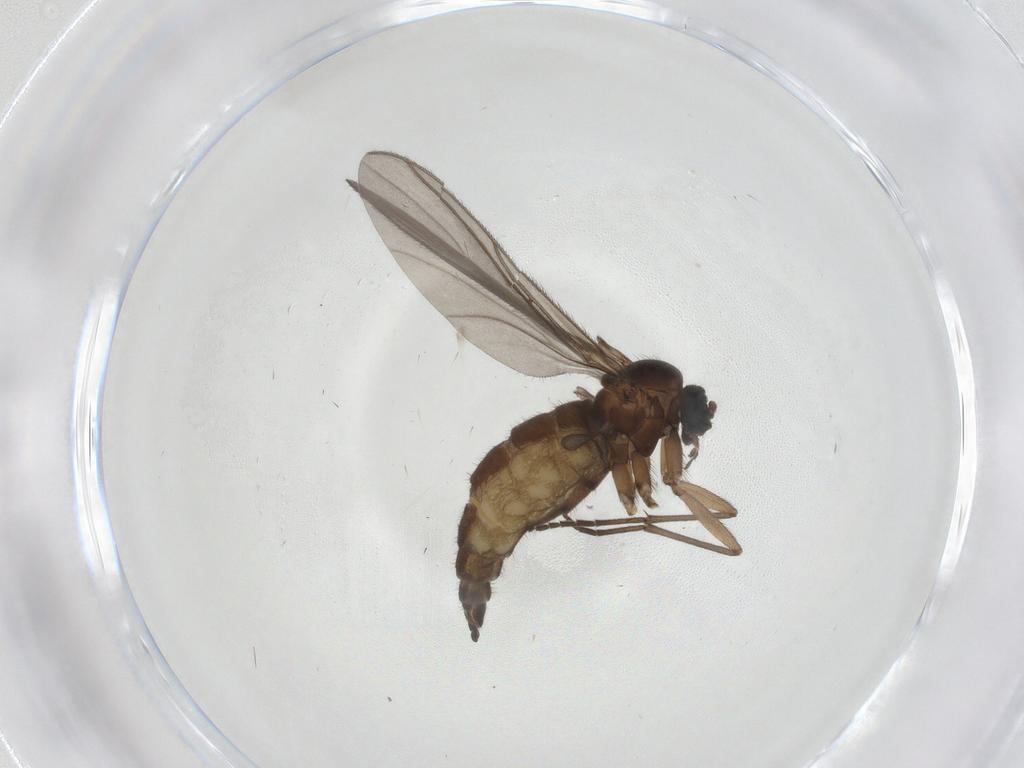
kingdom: Animalia
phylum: Arthropoda
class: Insecta
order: Diptera
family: Sciaridae
